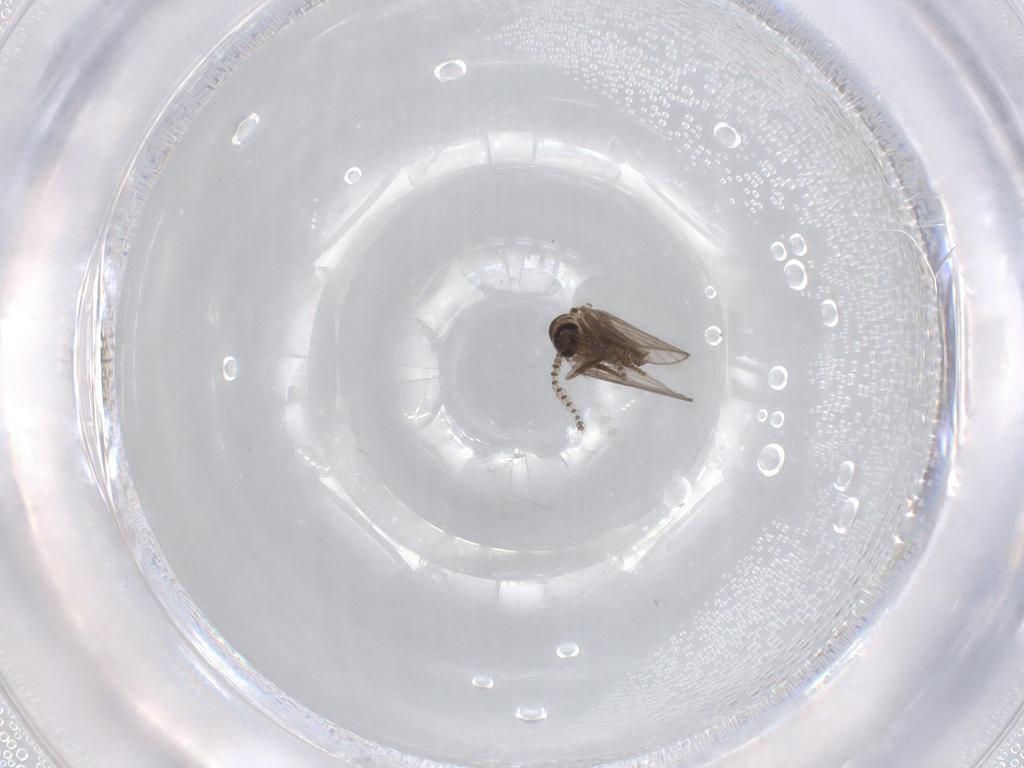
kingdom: Animalia
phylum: Arthropoda
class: Insecta
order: Diptera
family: Psychodidae
